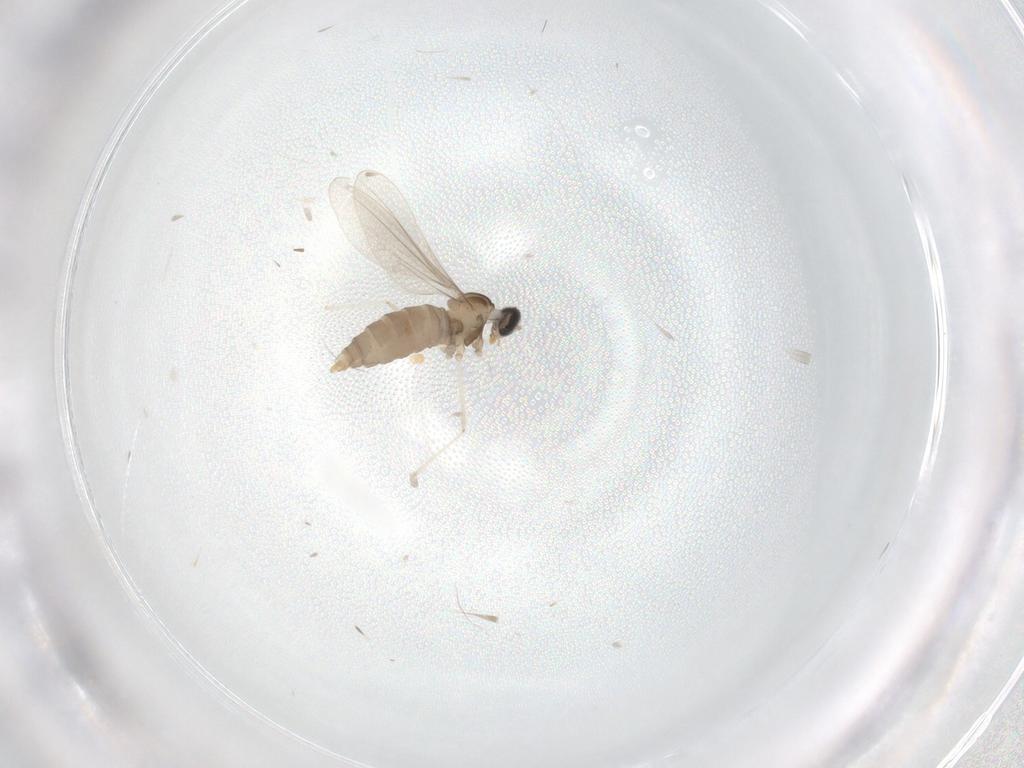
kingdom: Animalia
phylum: Arthropoda
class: Insecta
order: Diptera
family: Cecidomyiidae
